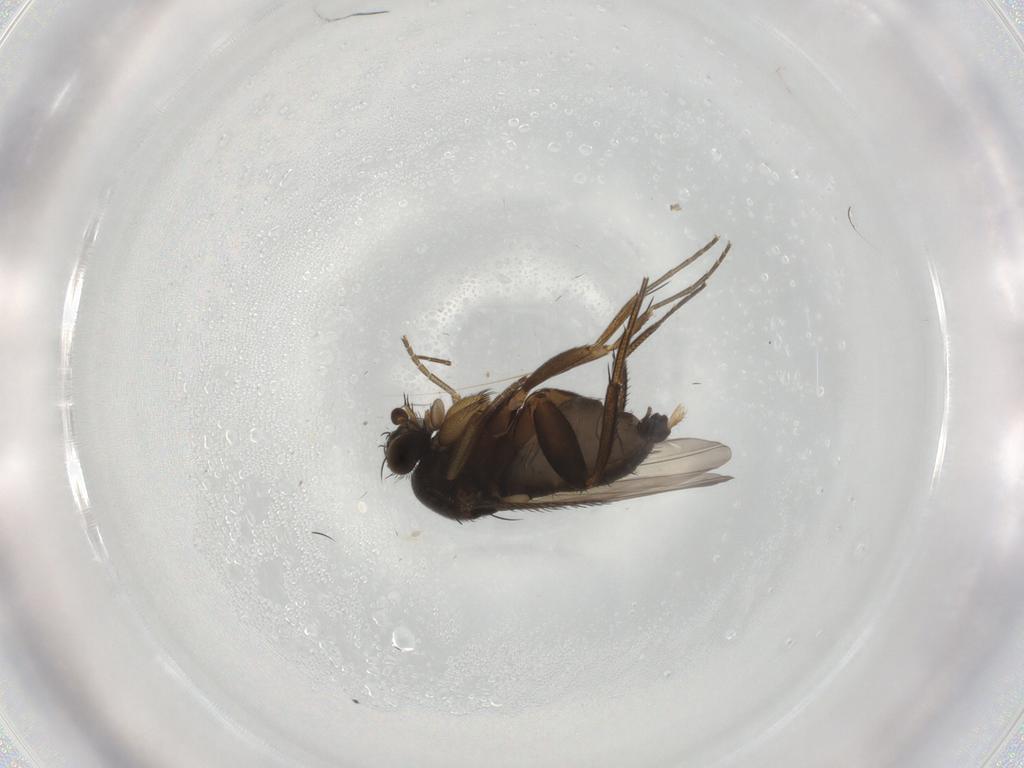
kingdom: Animalia
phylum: Arthropoda
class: Insecta
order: Diptera
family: Phoridae
